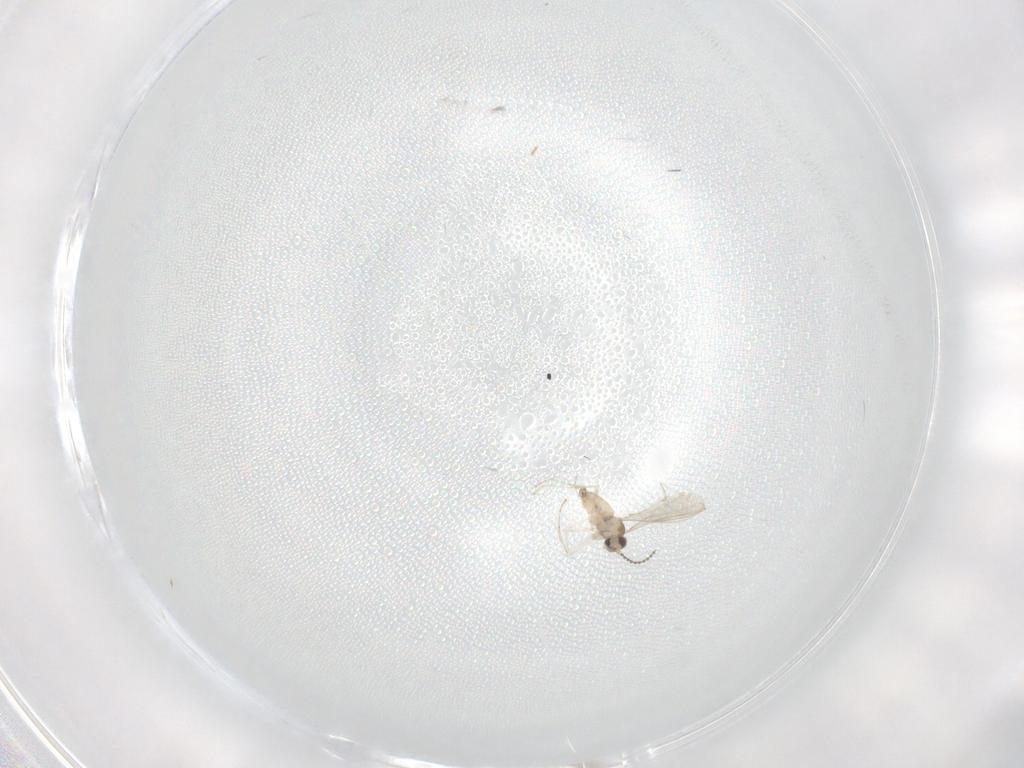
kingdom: Animalia
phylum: Arthropoda
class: Insecta
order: Diptera
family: Cecidomyiidae
